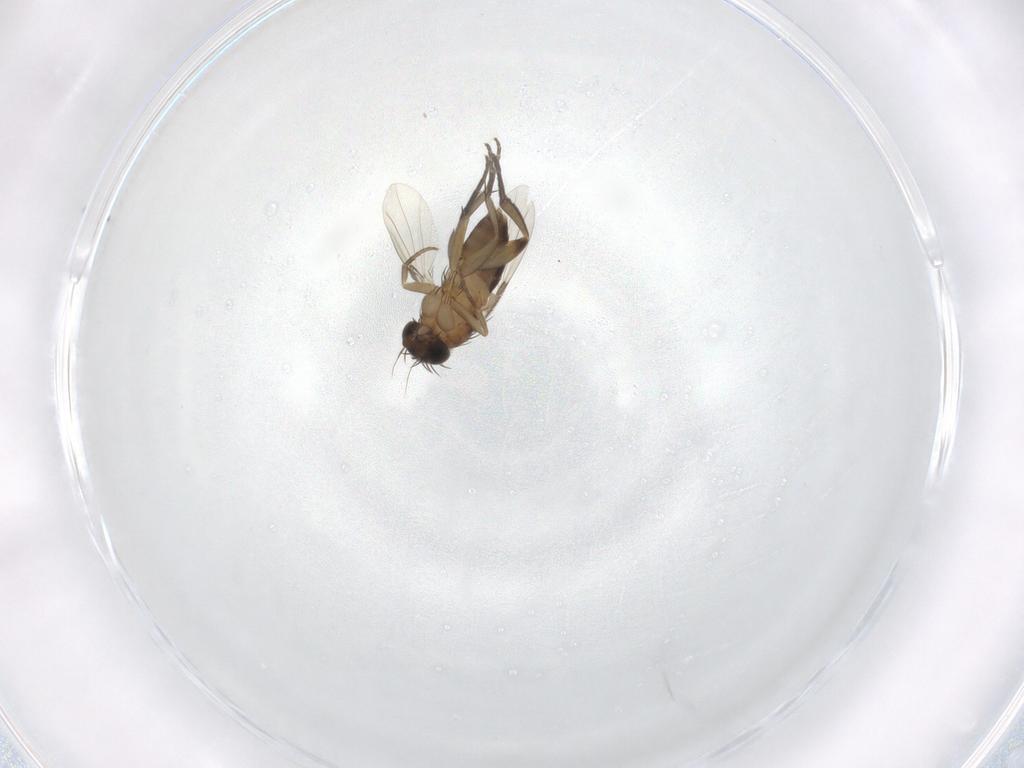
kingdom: Animalia
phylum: Arthropoda
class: Insecta
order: Diptera
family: Phoridae
